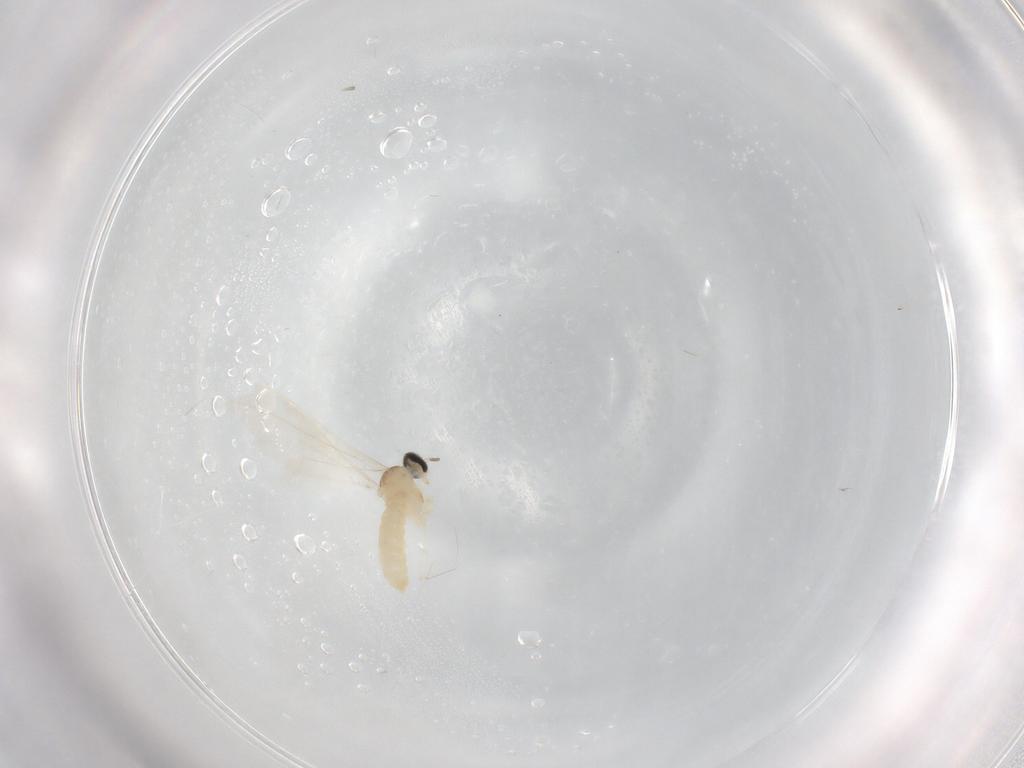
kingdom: Animalia
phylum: Arthropoda
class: Insecta
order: Diptera
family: Cecidomyiidae
